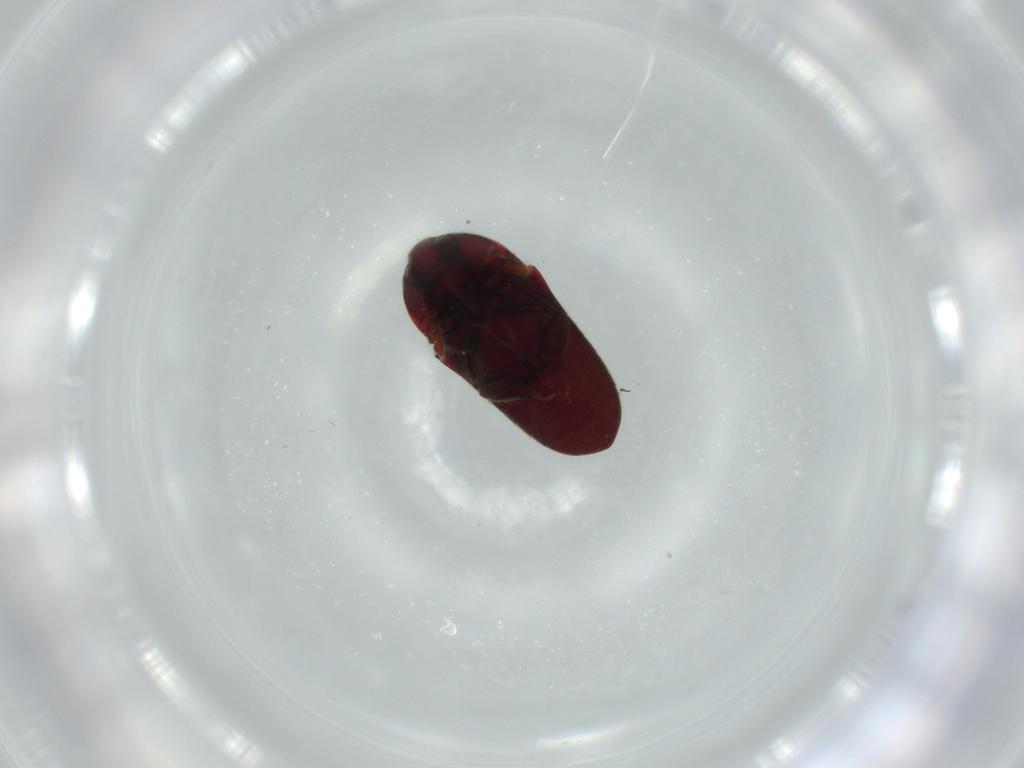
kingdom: Animalia
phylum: Arthropoda
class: Insecta
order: Coleoptera
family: Throscidae
